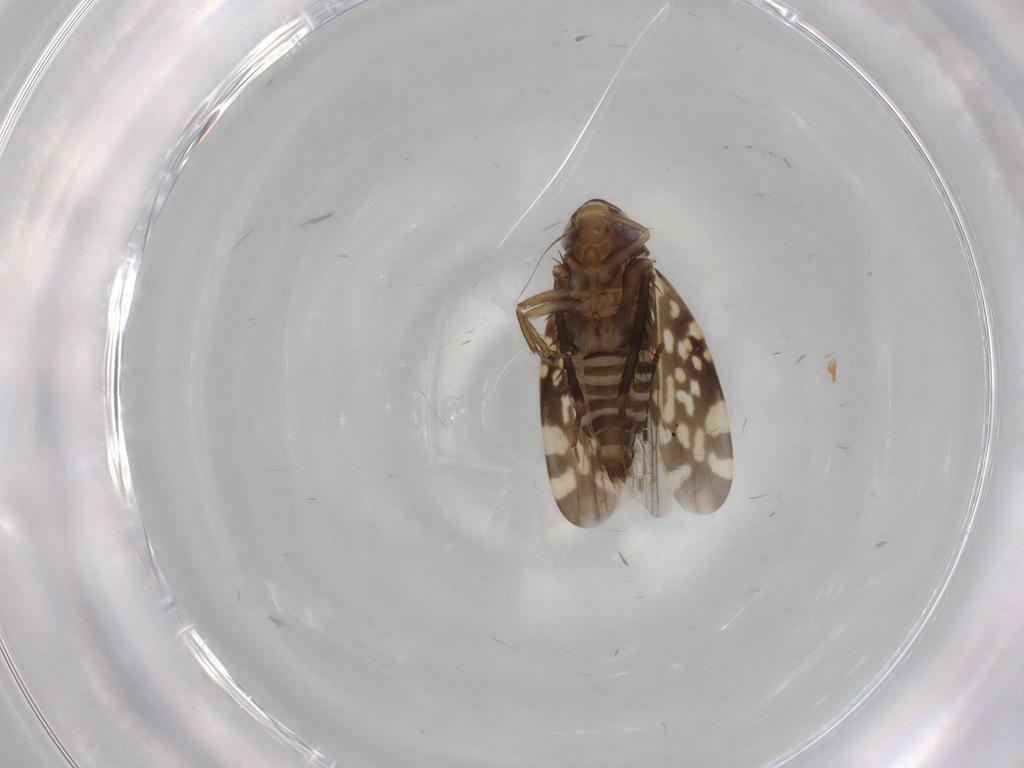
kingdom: Animalia
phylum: Arthropoda
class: Insecta
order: Hemiptera
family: Cicadellidae
